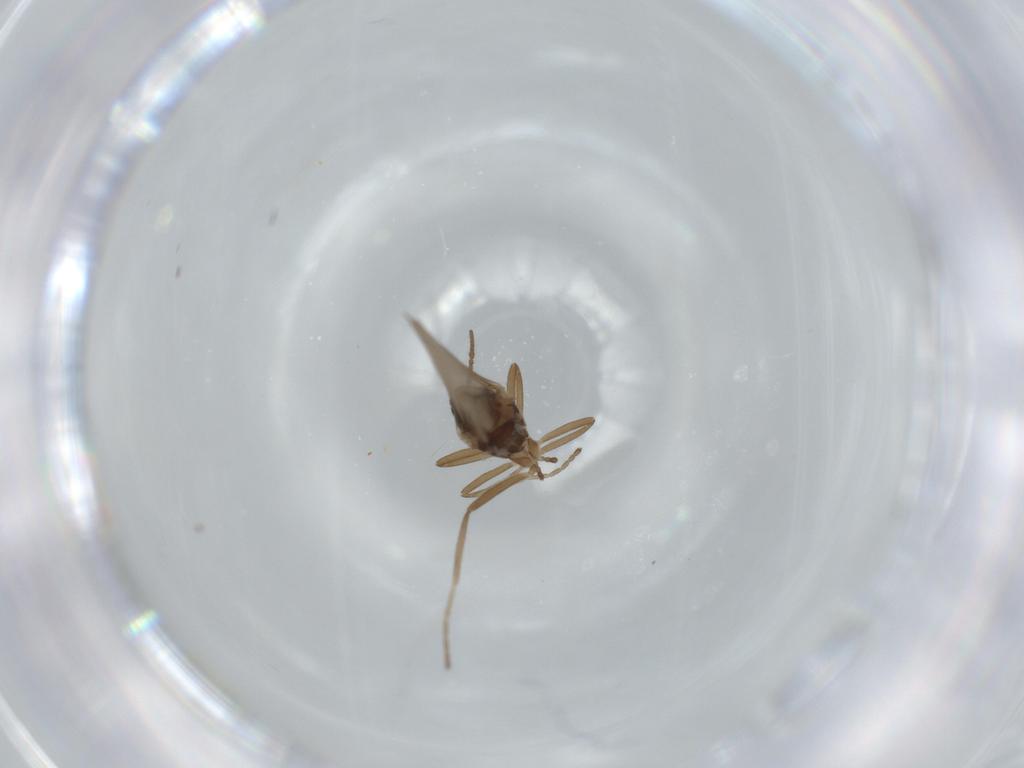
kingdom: Animalia
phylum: Arthropoda
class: Insecta
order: Diptera
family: Cecidomyiidae
